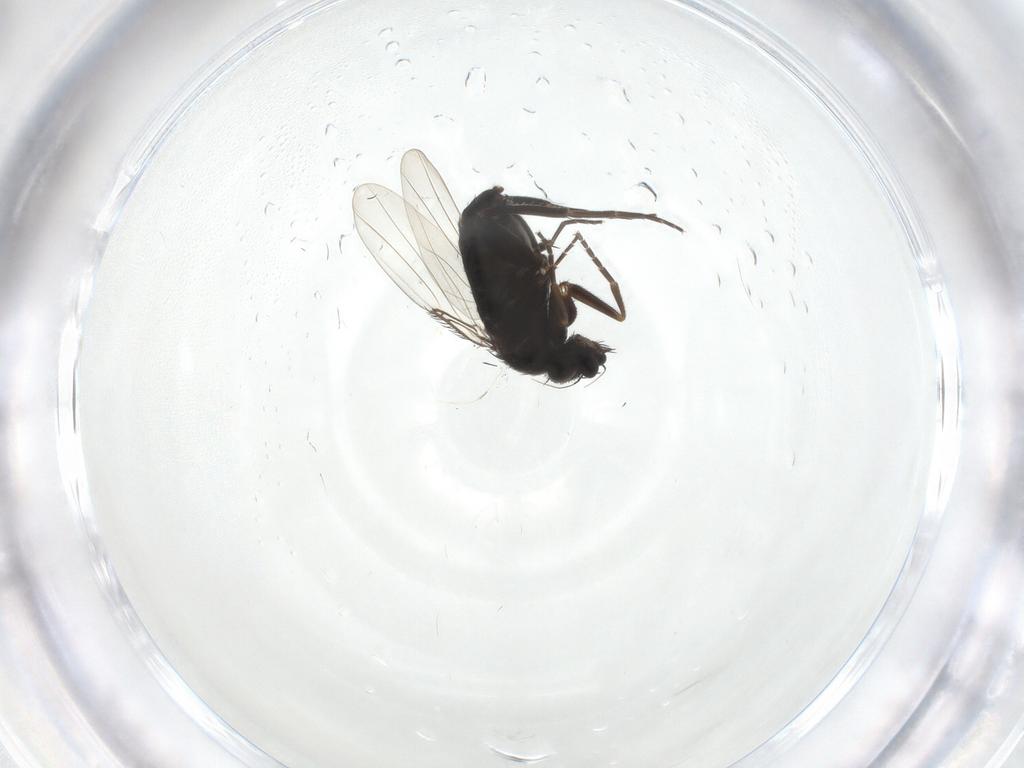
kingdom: Animalia
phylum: Arthropoda
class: Insecta
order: Diptera
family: Phoridae
